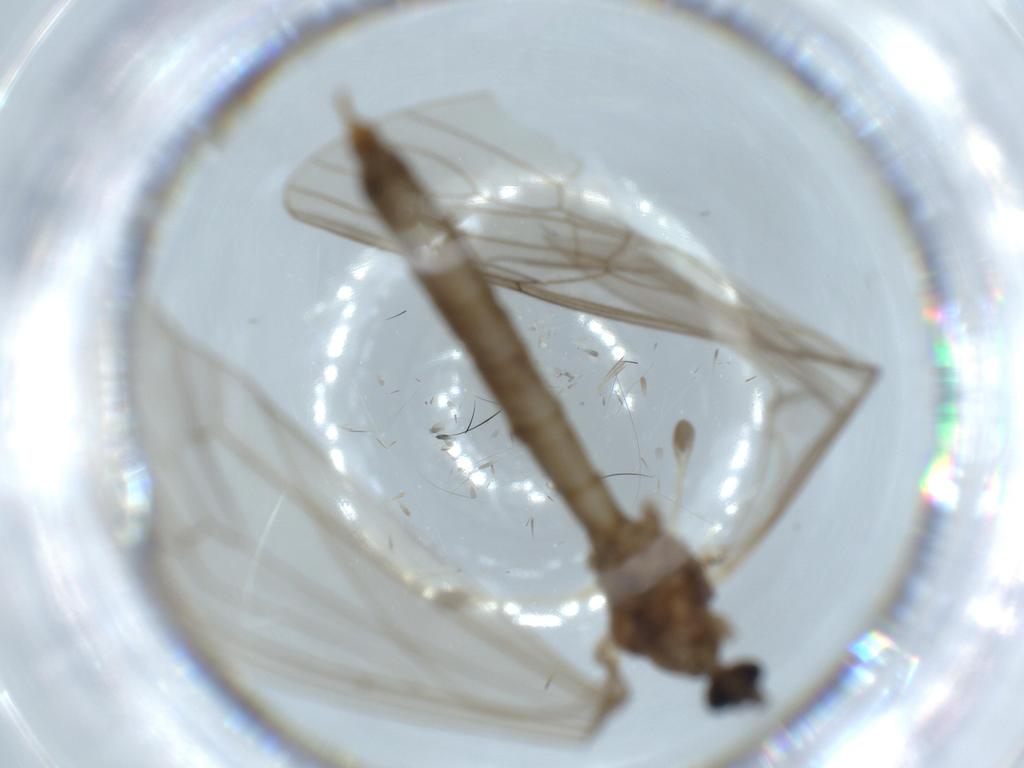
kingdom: Animalia
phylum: Arthropoda
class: Insecta
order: Diptera
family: Trichoceridae
